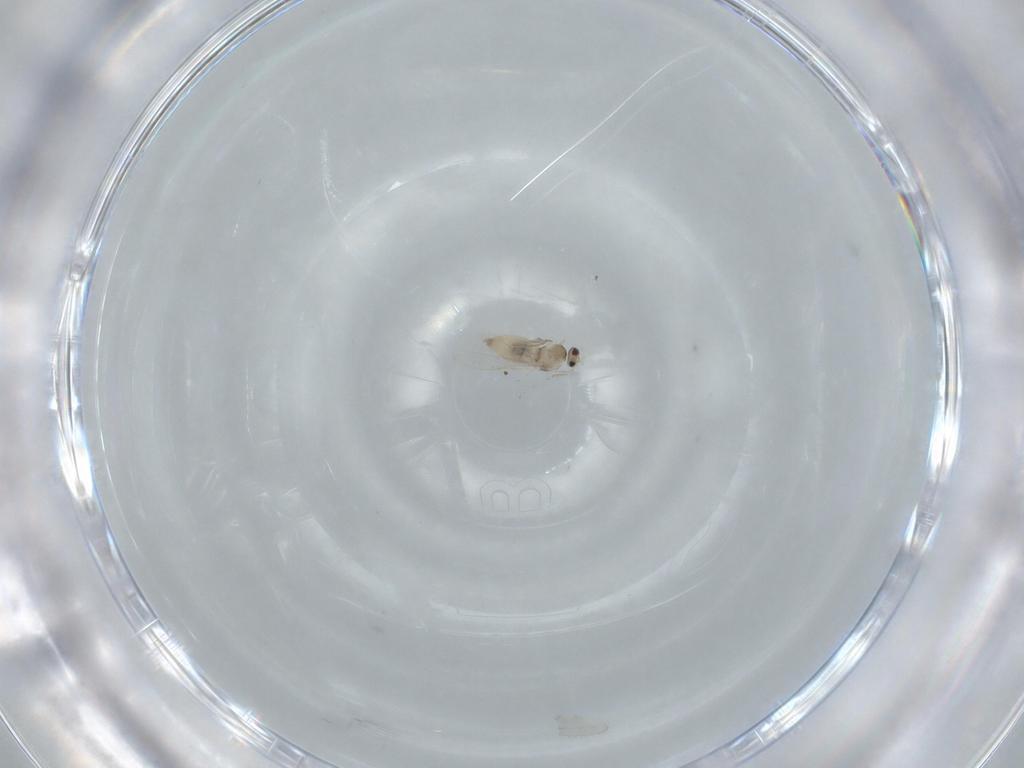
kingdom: Animalia
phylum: Arthropoda
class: Insecta
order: Diptera
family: Cecidomyiidae
